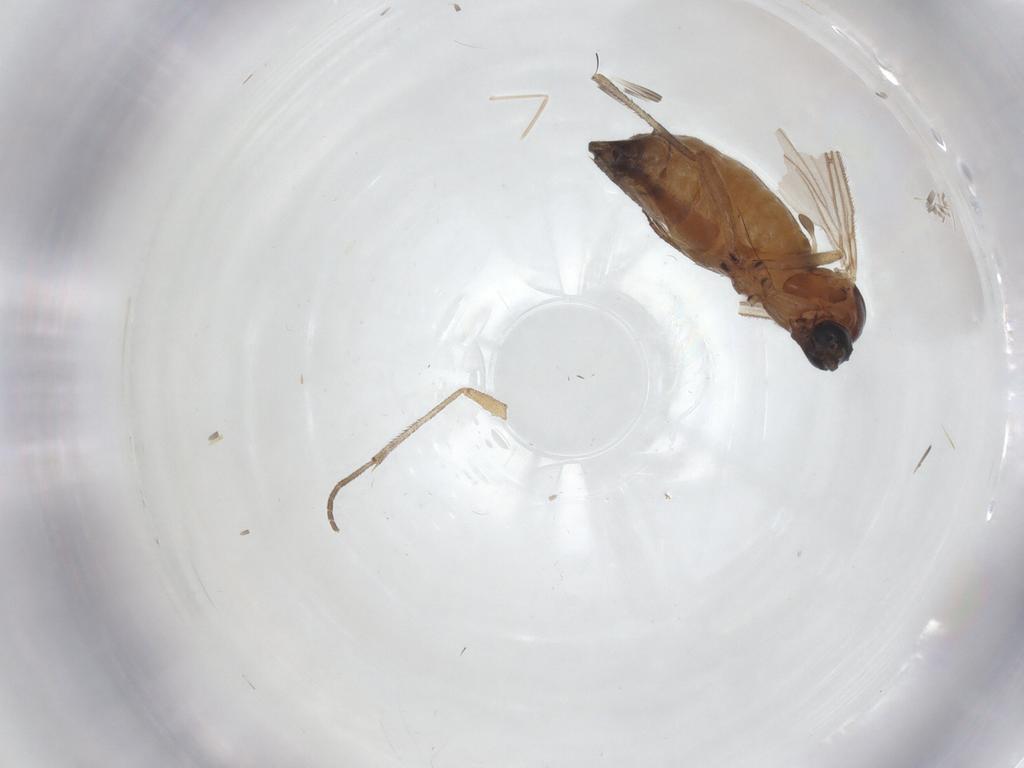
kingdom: Animalia
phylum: Arthropoda
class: Insecta
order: Diptera
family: Sciaridae
